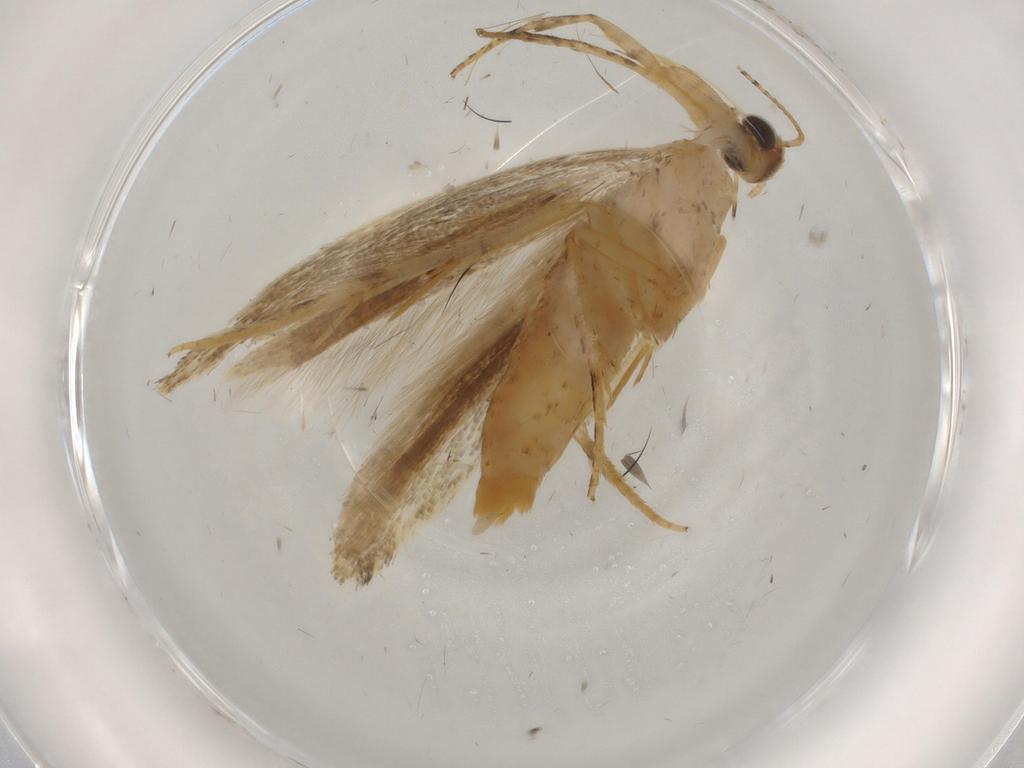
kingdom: Animalia
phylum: Arthropoda
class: Insecta
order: Lepidoptera
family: Gelechiidae
